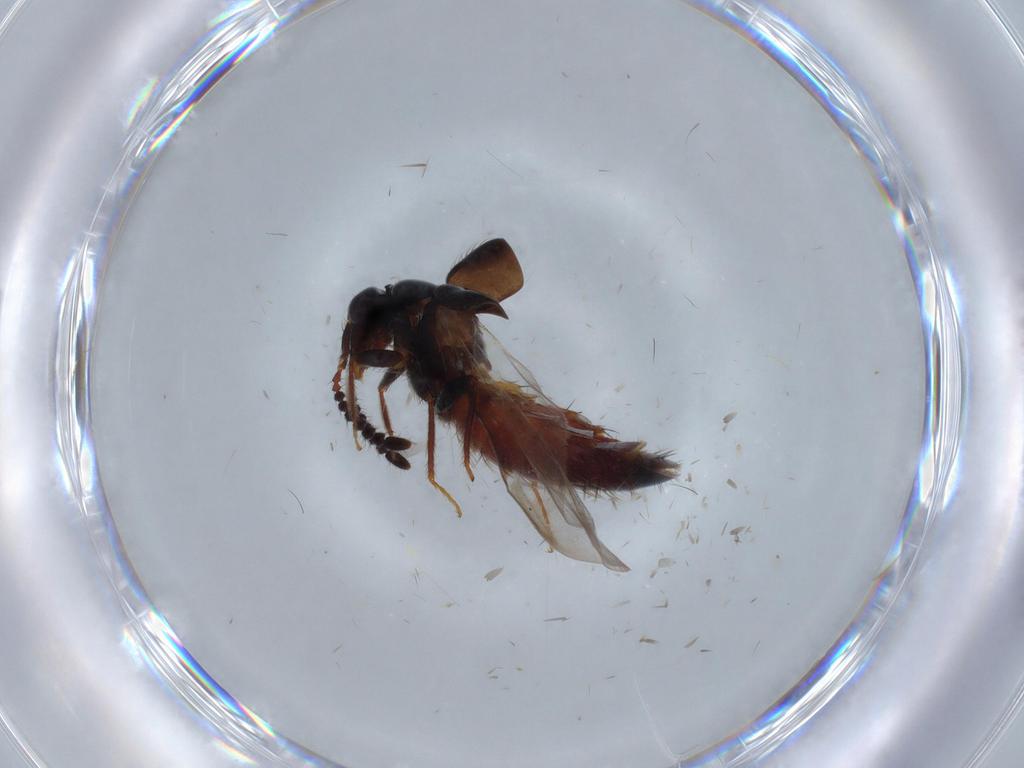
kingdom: Animalia
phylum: Arthropoda
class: Insecta
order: Coleoptera
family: Staphylinidae
